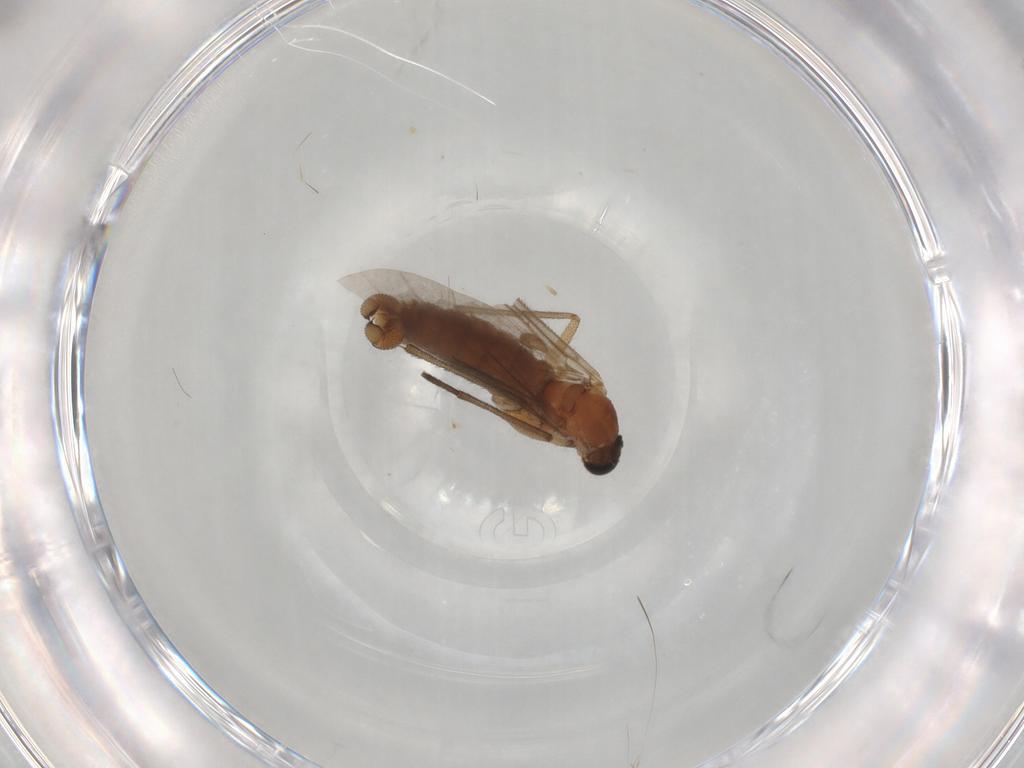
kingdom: Animalia
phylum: Arthropoda
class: Insecta
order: Diptera
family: Sciaridae
